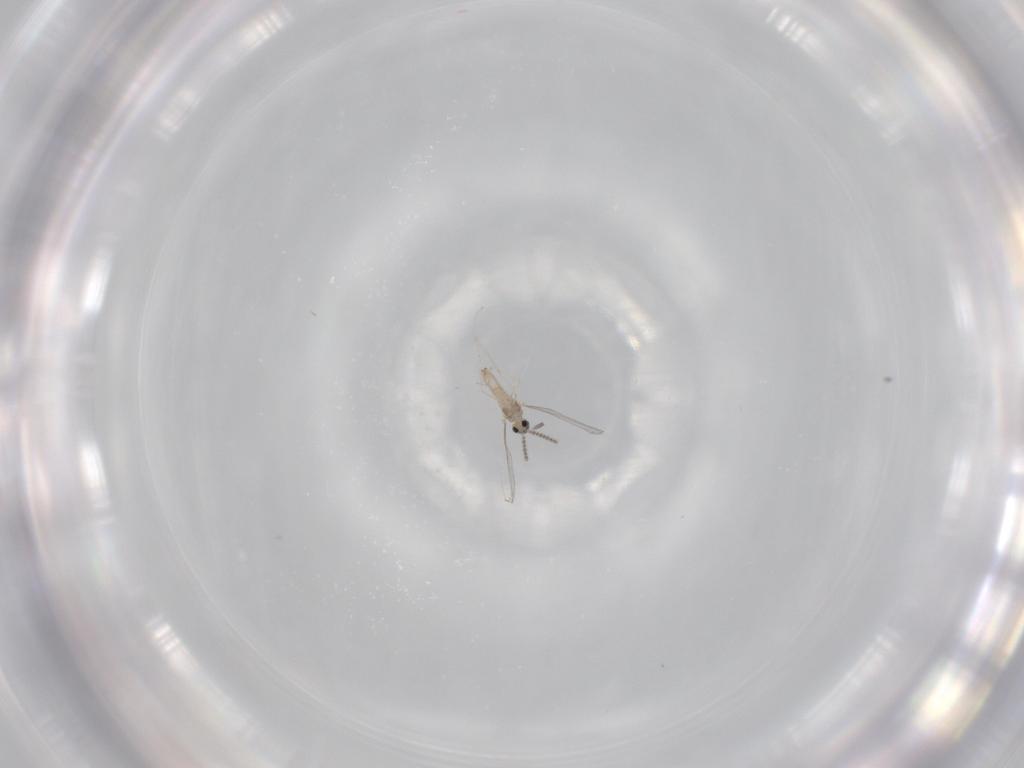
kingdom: Animalia
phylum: Arthropoda
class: Insecta
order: Diptera
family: Cecidomyiidae
